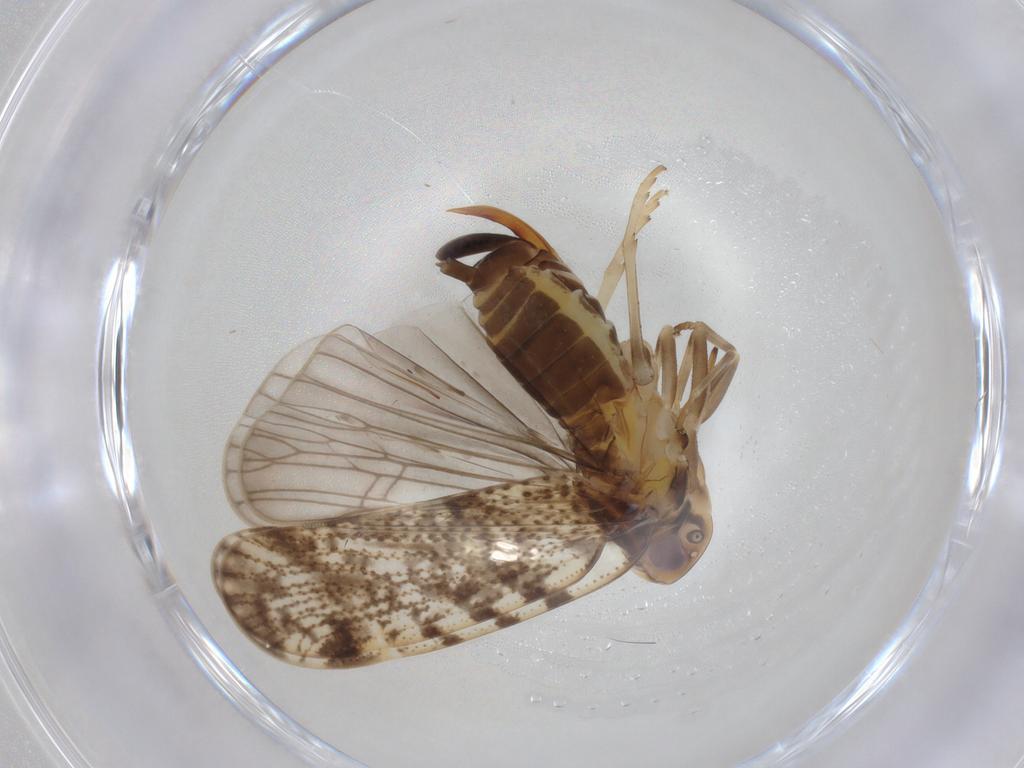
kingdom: Animalia
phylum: Arthropoda
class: Insecta
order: Diptera
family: Sciaridae
